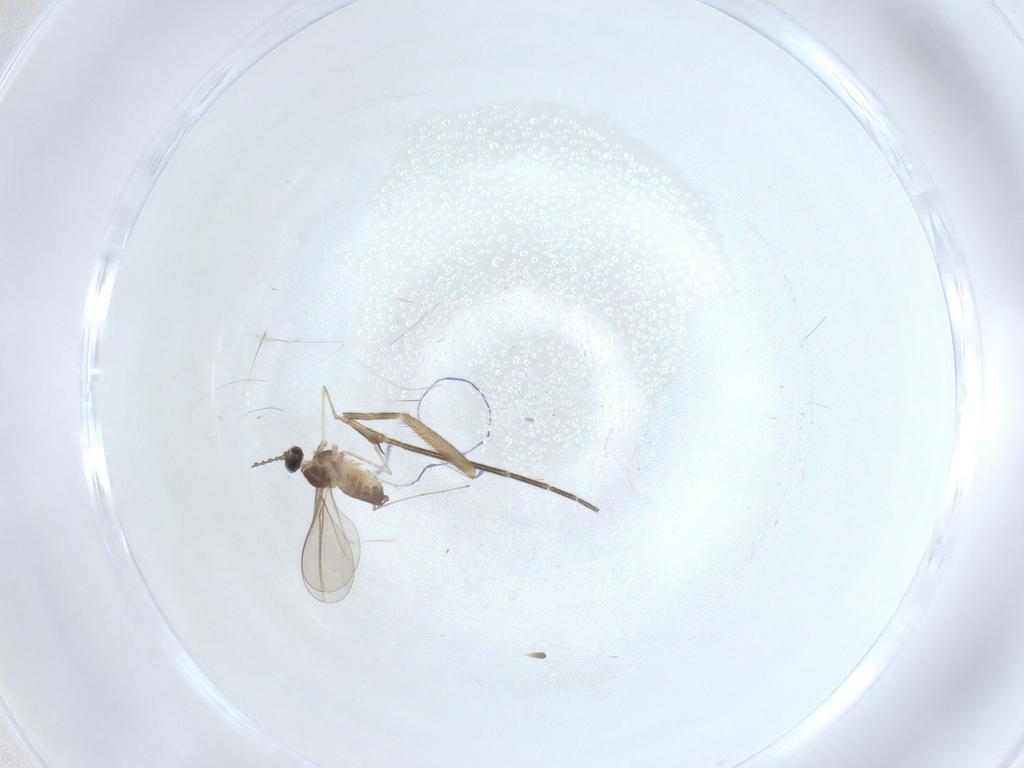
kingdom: Animalia
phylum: Arthropoda
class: Insecta
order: Diptera
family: Cecidomyiidae
